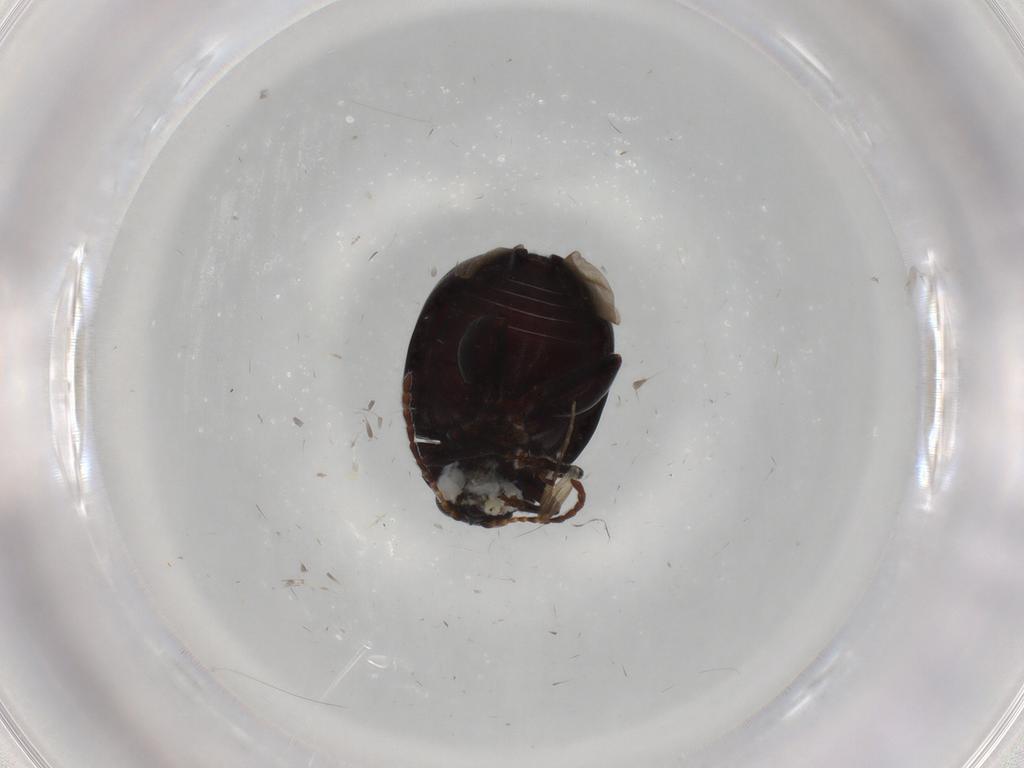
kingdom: Animalia
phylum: Arthropoda
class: Insecta
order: Coleoptera
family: Chrysomelidae
